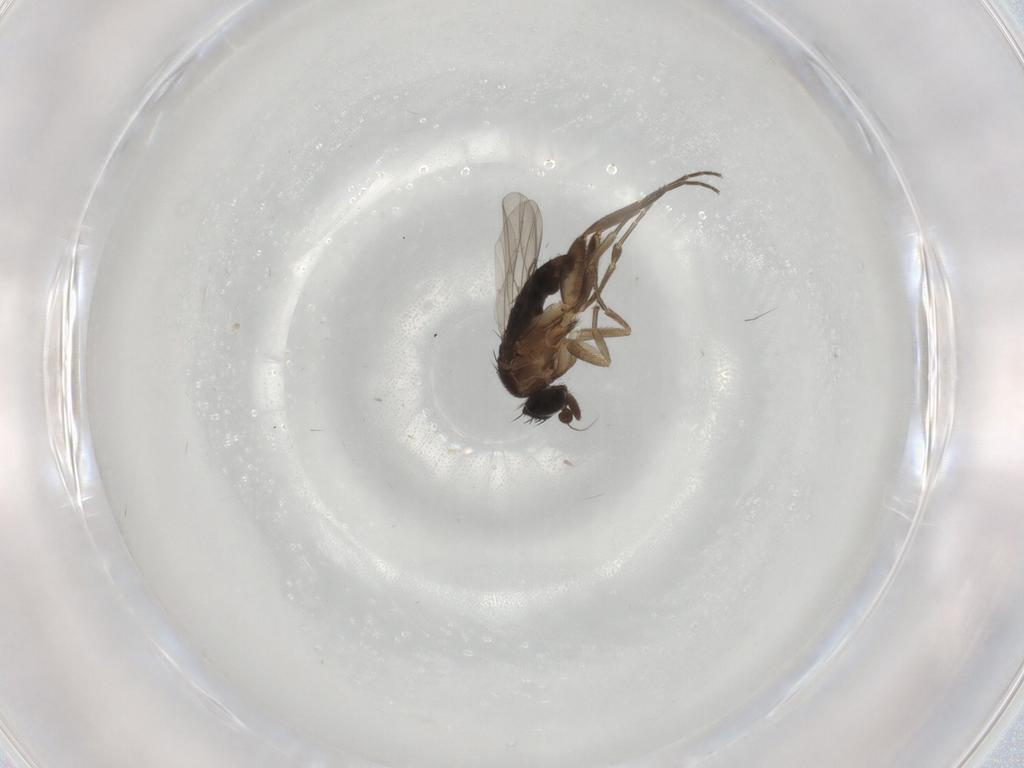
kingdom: Animalia
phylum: Arthropoda
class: Insecta
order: Diptera
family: Phoridae
